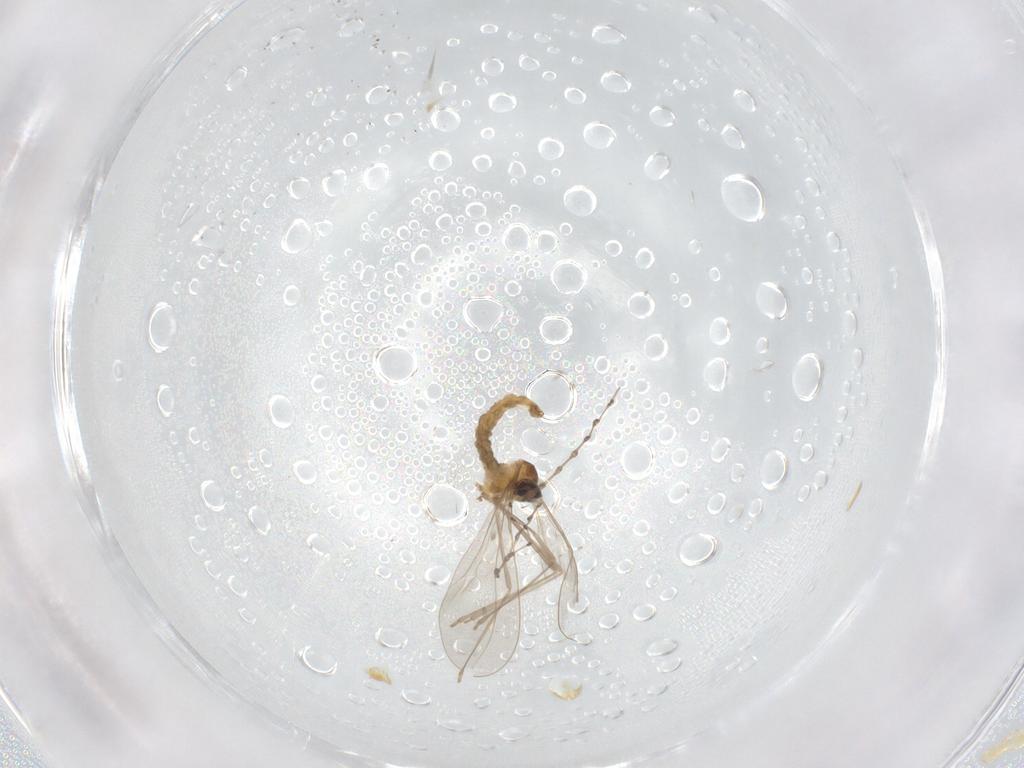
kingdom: Animalia
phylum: Arthropoda
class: Insecta
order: Diptera
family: Cecidomyiidae
